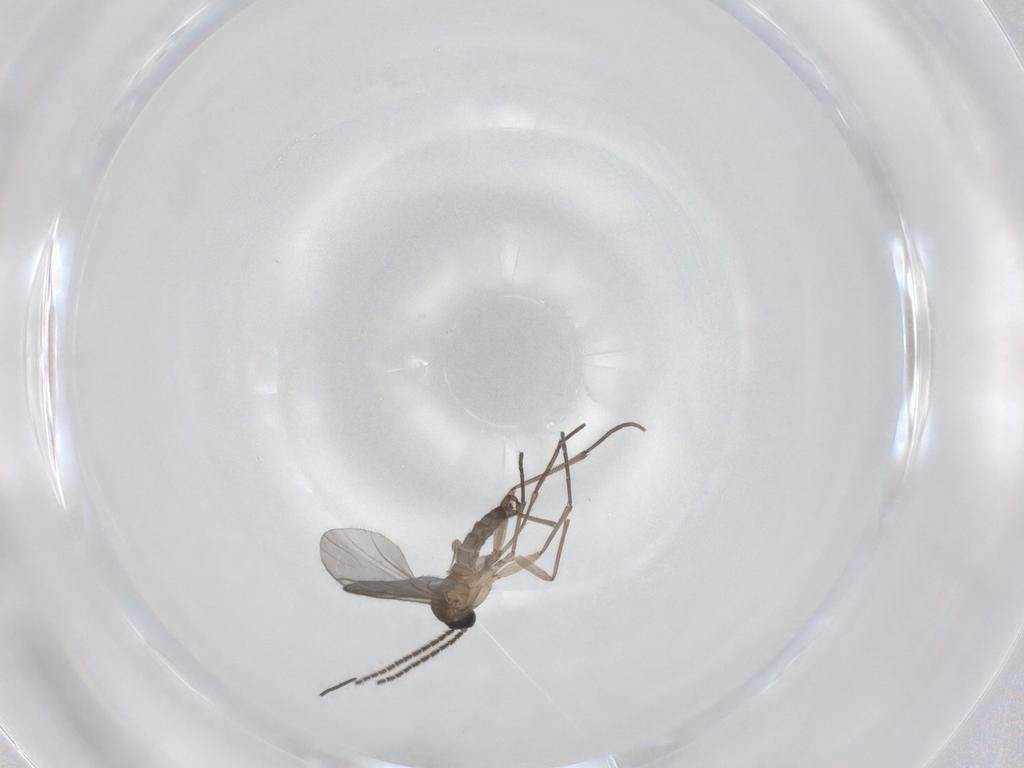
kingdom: Animalia
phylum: Arthropoda
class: Insecta
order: Diptera
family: Sciaridae
